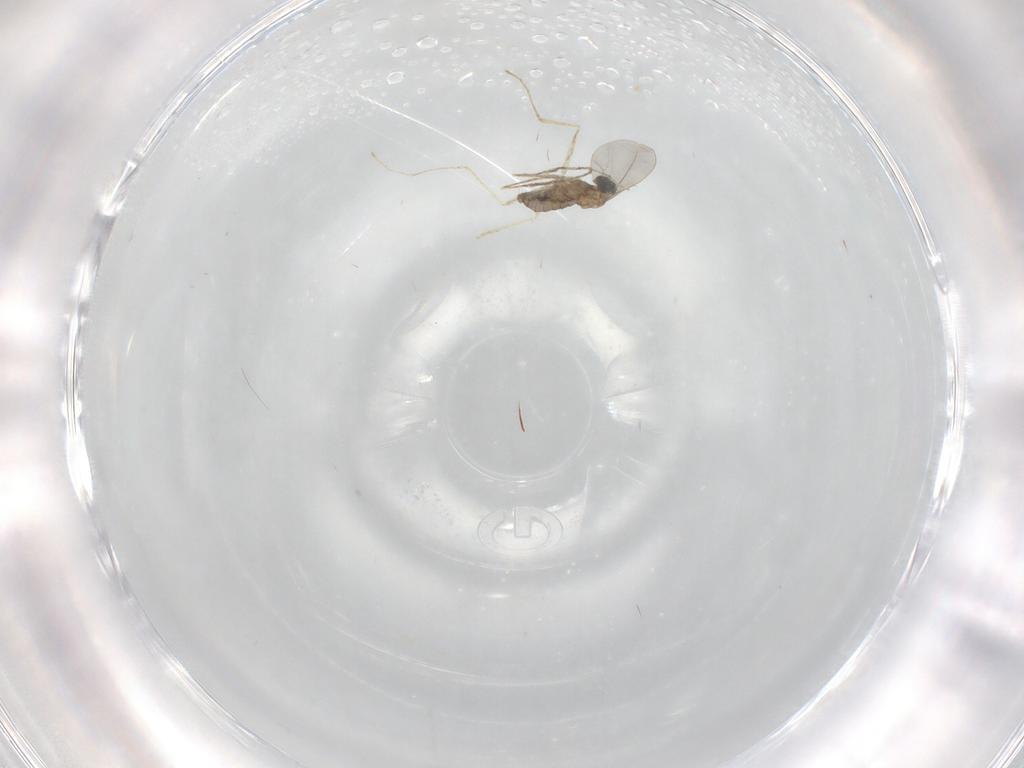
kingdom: Animalia
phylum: Arthropoda
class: Insecta
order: Diptera
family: Cecidomyiidae
